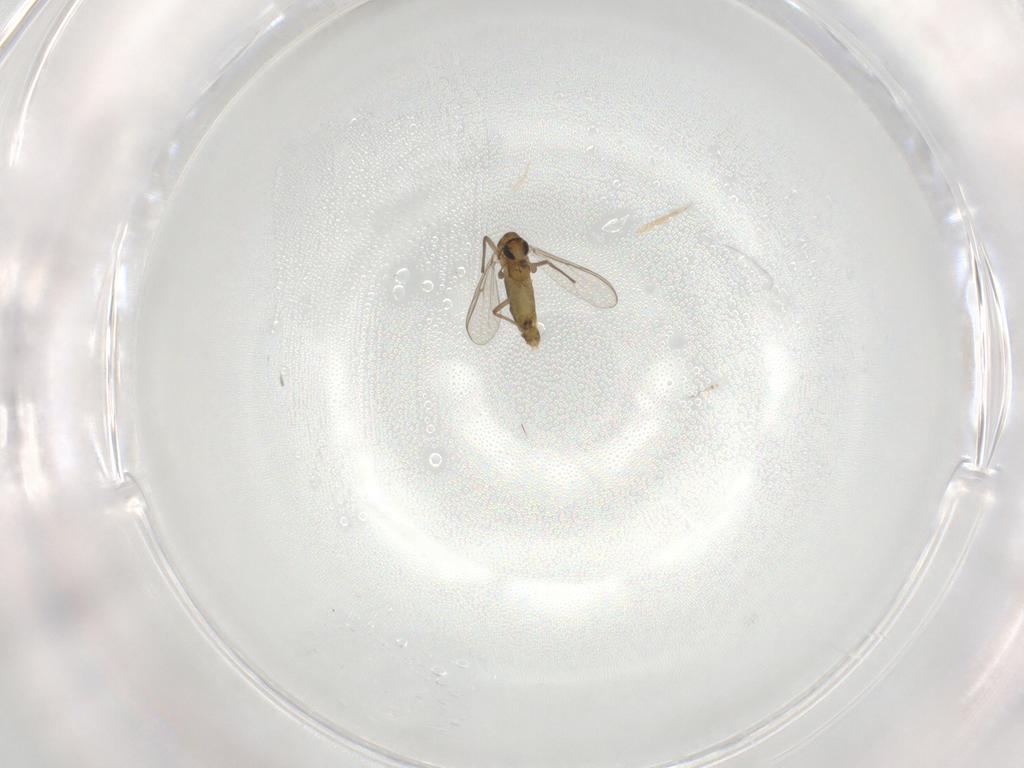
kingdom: Animalia
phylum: Arthropoda
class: Insecta
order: Diptera
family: Chironomidae
